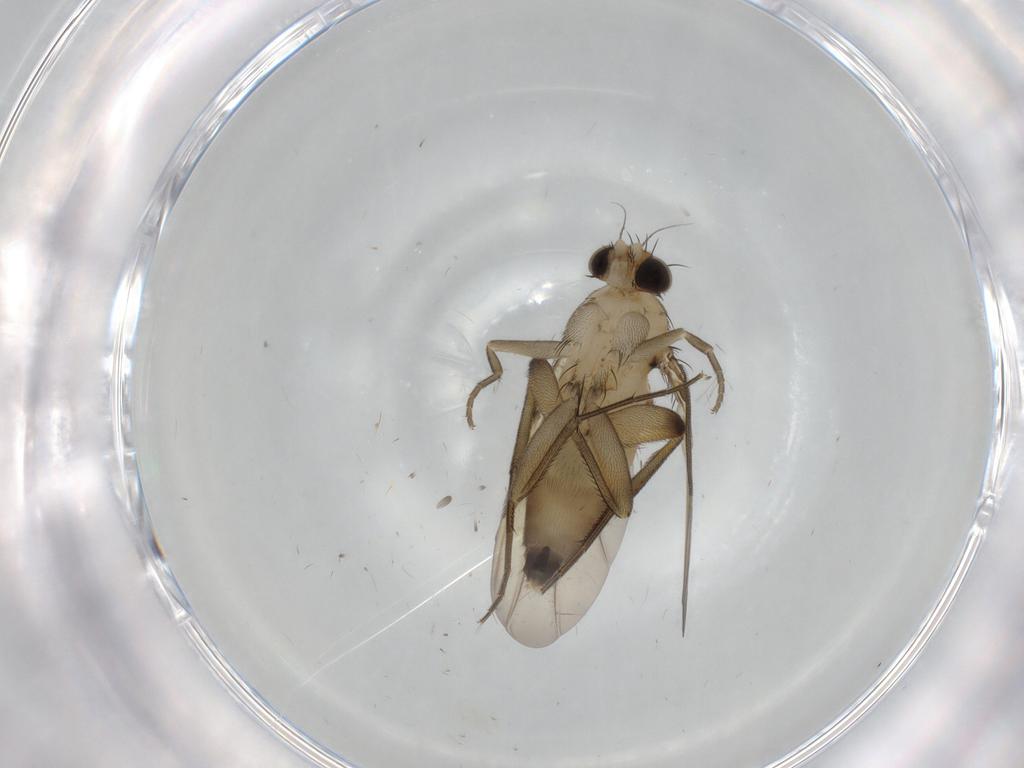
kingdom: Animalia
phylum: Arthropoda
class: Insecta
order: Diptera
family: Phoridae
